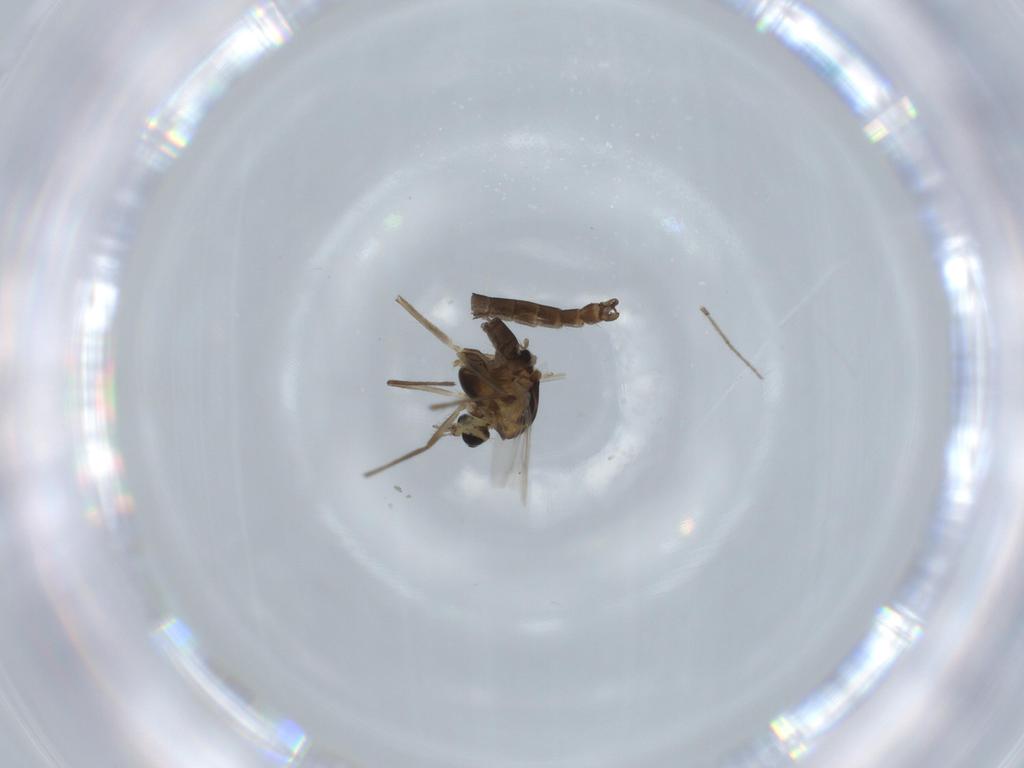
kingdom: Animalia
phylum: Arthropoda
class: Insecta
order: Diptera
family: Chironomidae
